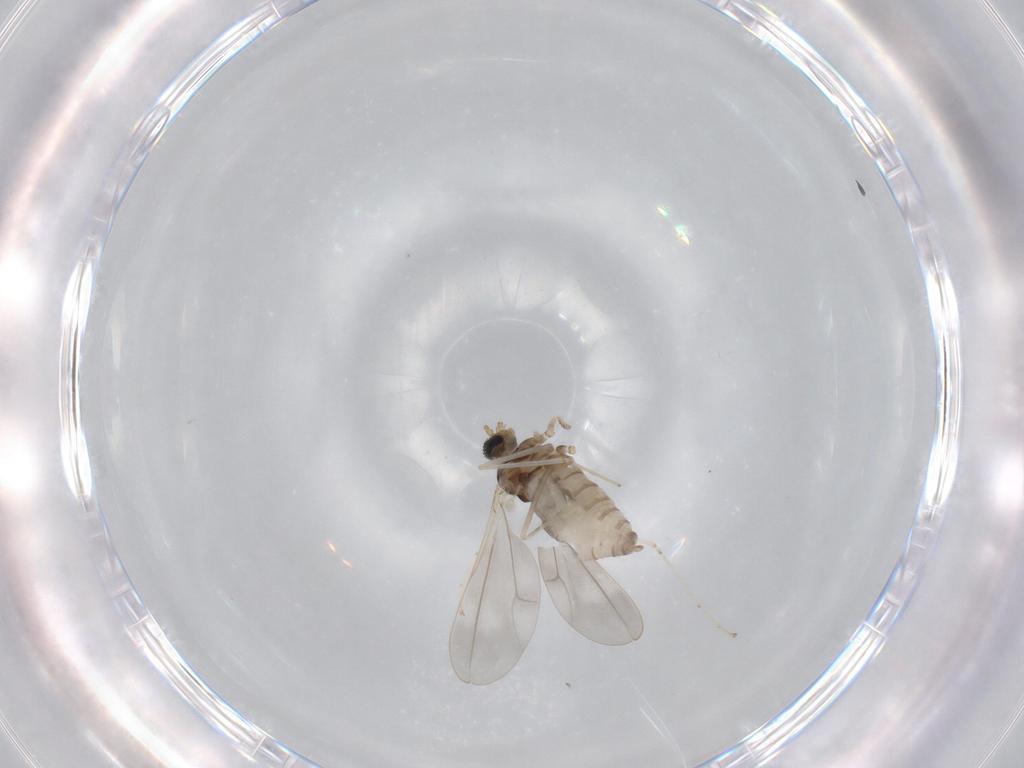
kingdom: Animalia
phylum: Arthropoda
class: Insecta
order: Diptera
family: Cecidomyiidae
